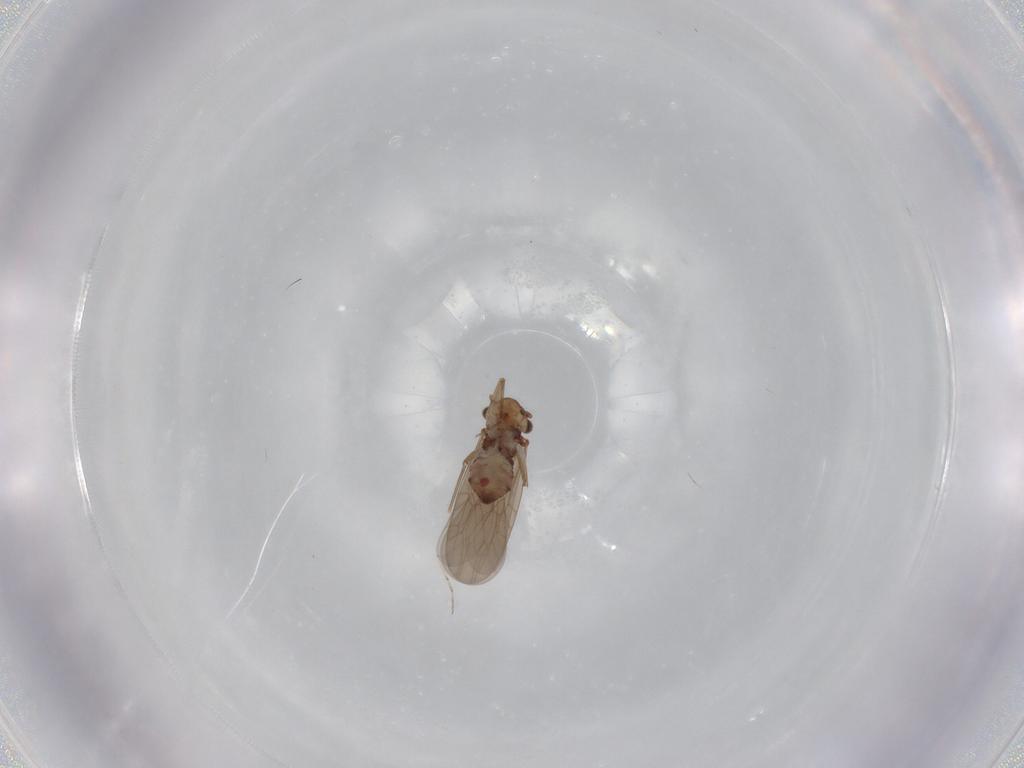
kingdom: Animalia
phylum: Arthropoda
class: Insecta
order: Psocodea
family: Lepidopsocidae
